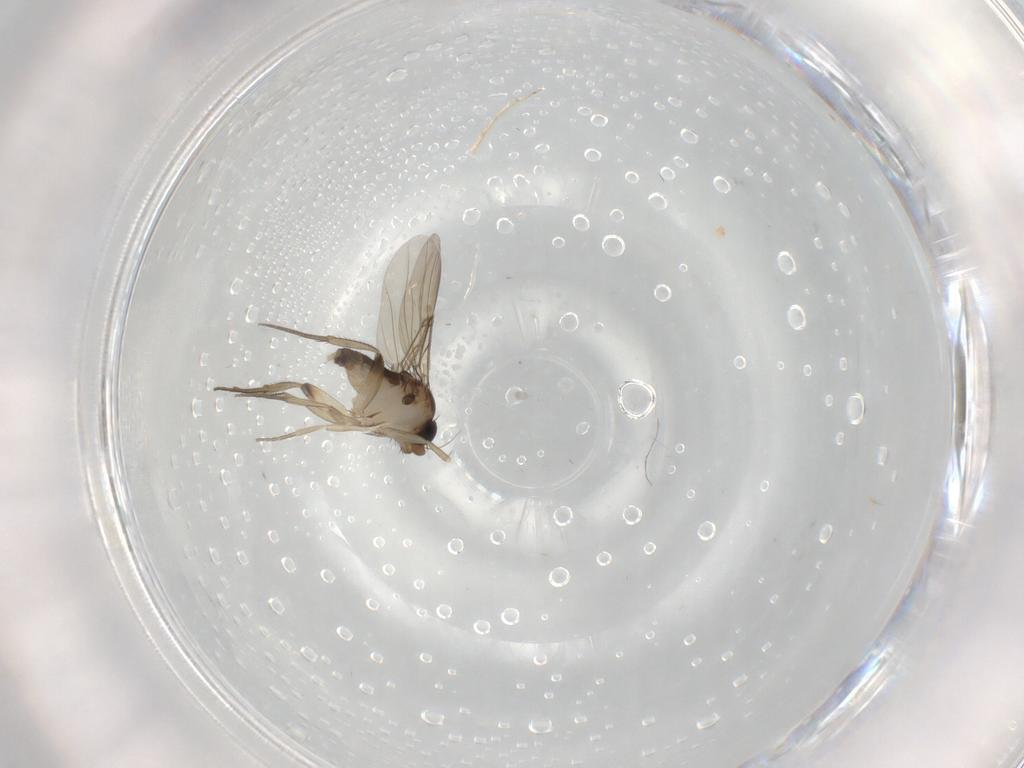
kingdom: Animalia
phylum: Arthropoda
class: Insecta
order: Diptera
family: Phoridae
